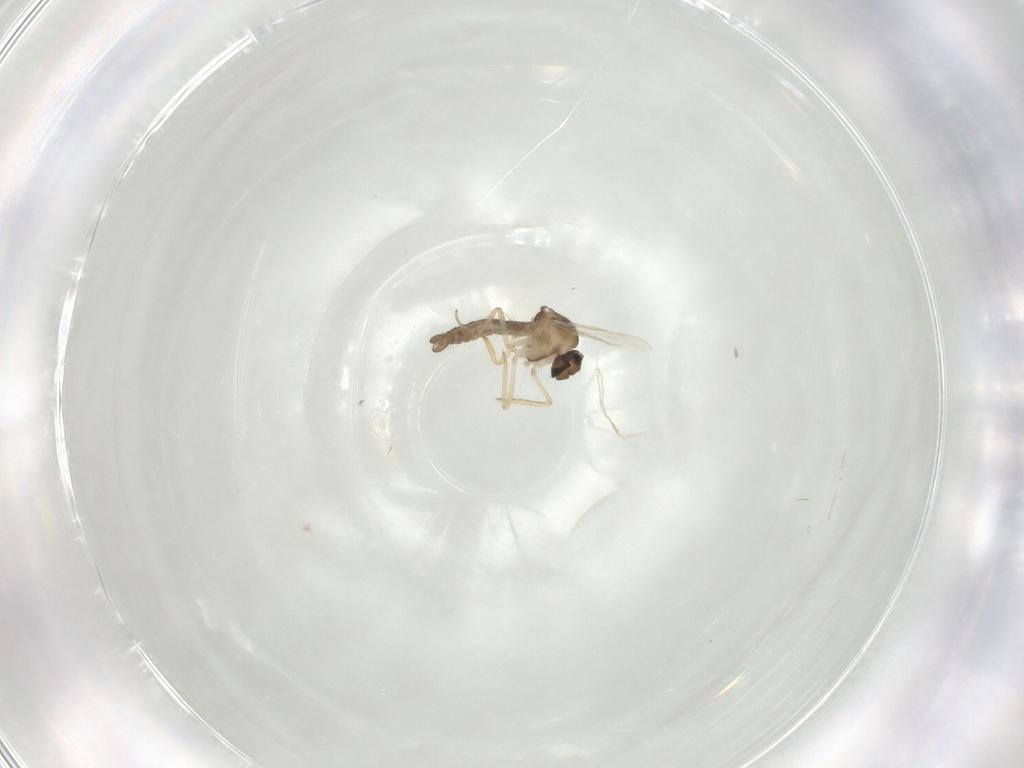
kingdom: Animalia
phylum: Arthropoda
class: Insecta
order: Diptera
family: Ceratopogonidae
